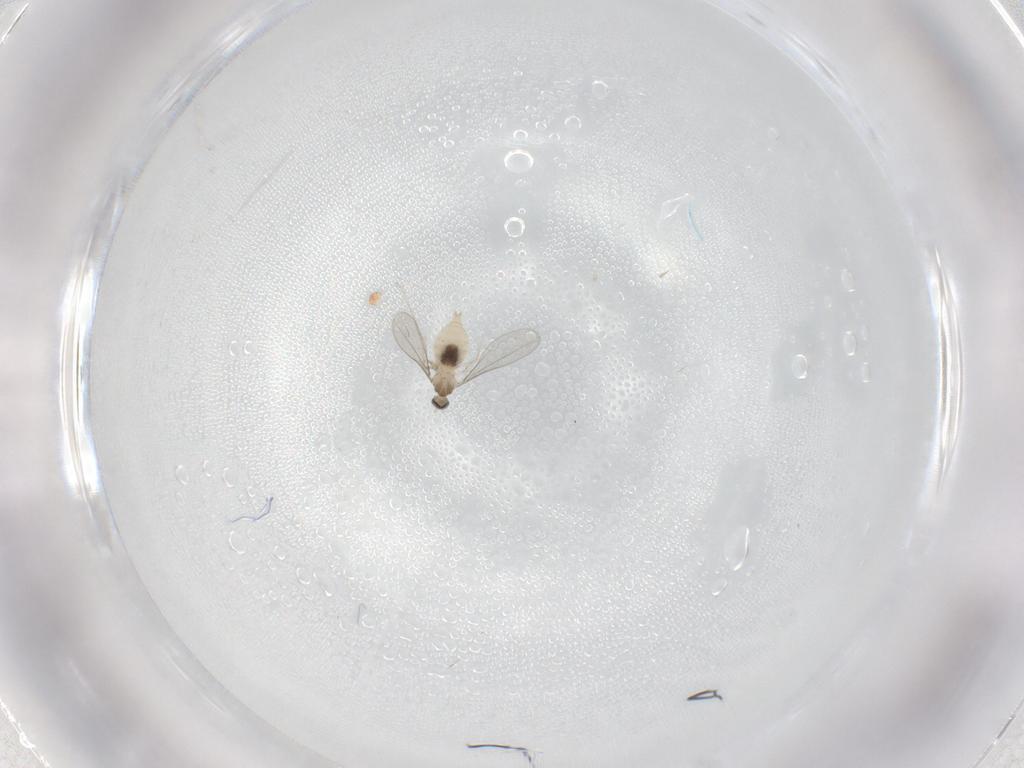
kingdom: Animalia
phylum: Arthropoda
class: Insecta
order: Diptera
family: Cecidomyiidae
